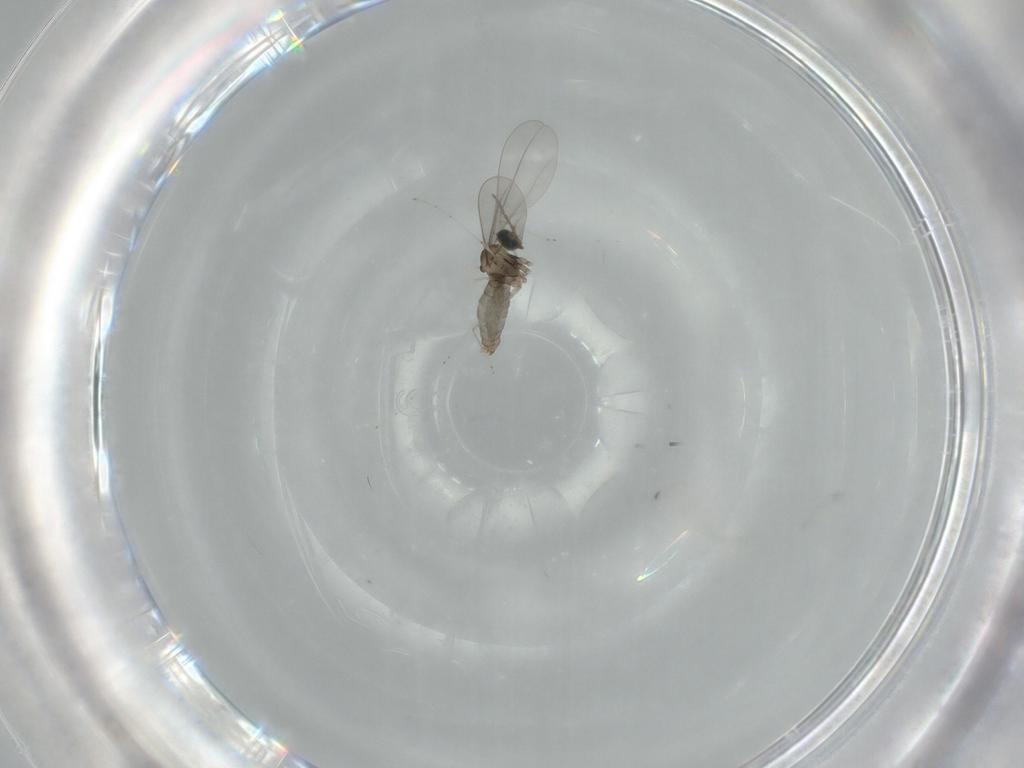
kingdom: Animalia
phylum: Arthropoda
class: Insecta
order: Diptera
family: Cecidomyiidae
